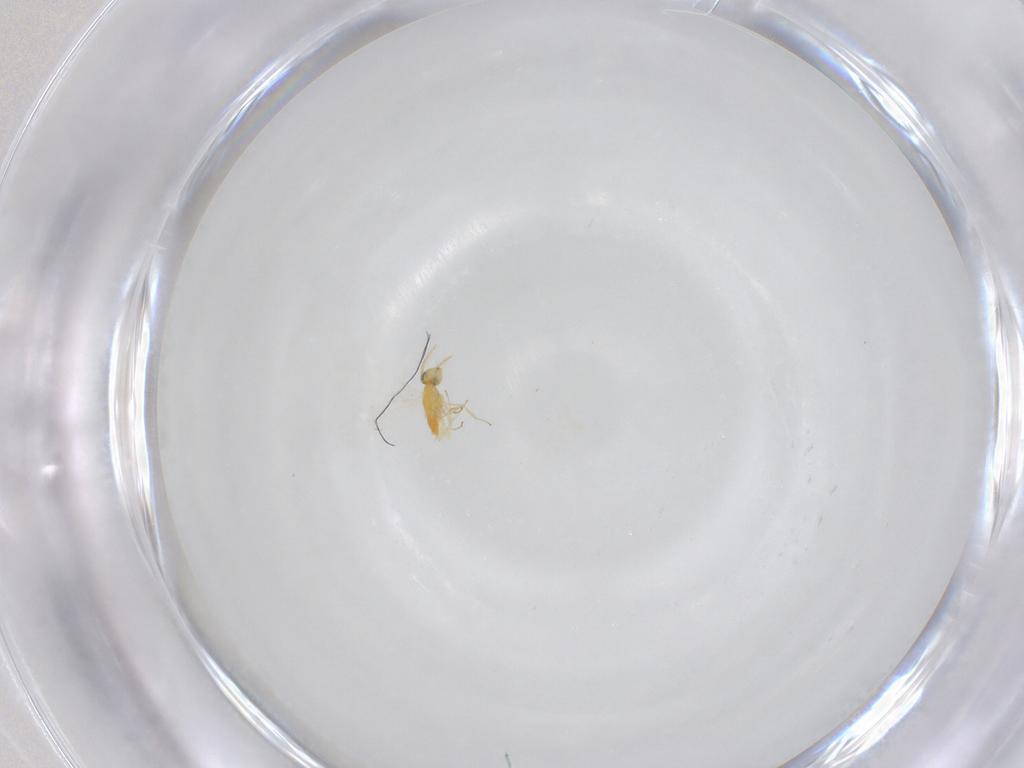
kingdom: Animalia
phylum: Arthropoda
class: Insecta
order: Hymenoptera
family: Aphelinidae
